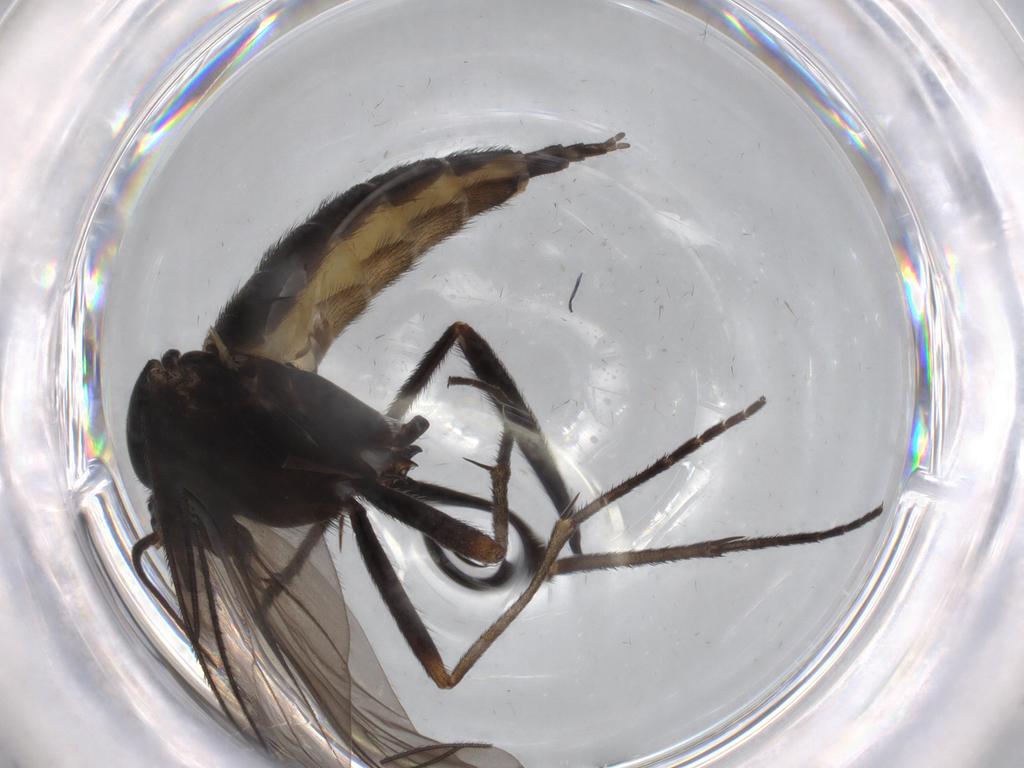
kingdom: Animalia
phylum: Arthropoda
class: Insecta
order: Diptera
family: Sciaridae
